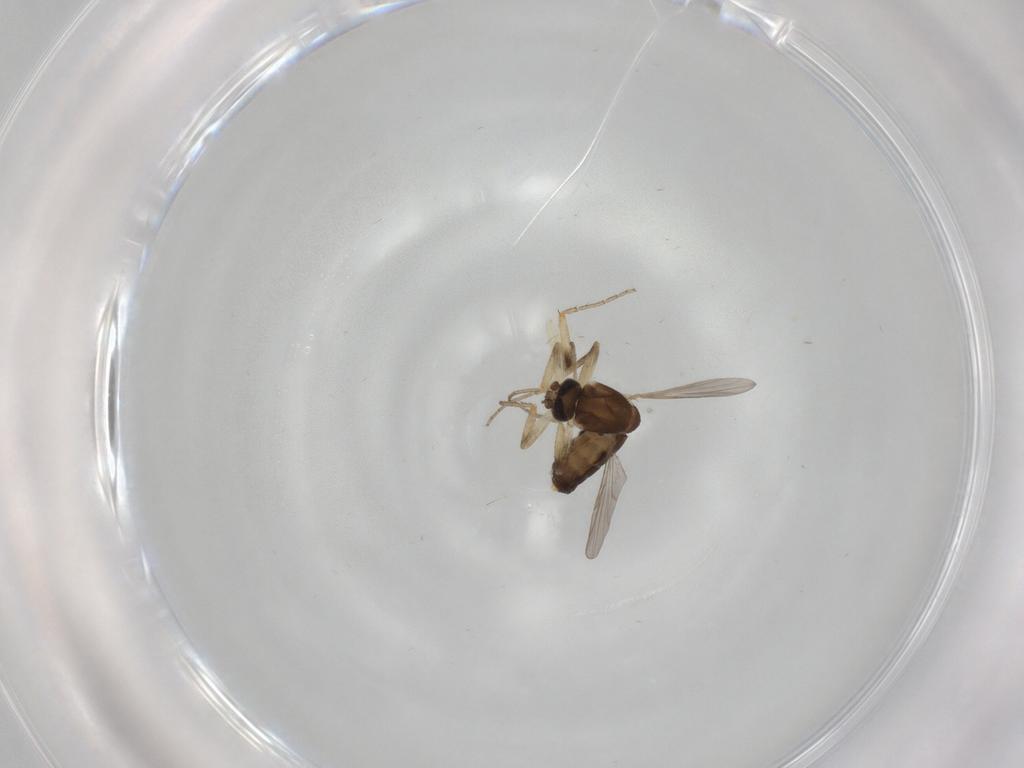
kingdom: Animalia
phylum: Arthropoda
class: Insecta
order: Diptera
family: Ceratopogonidae
